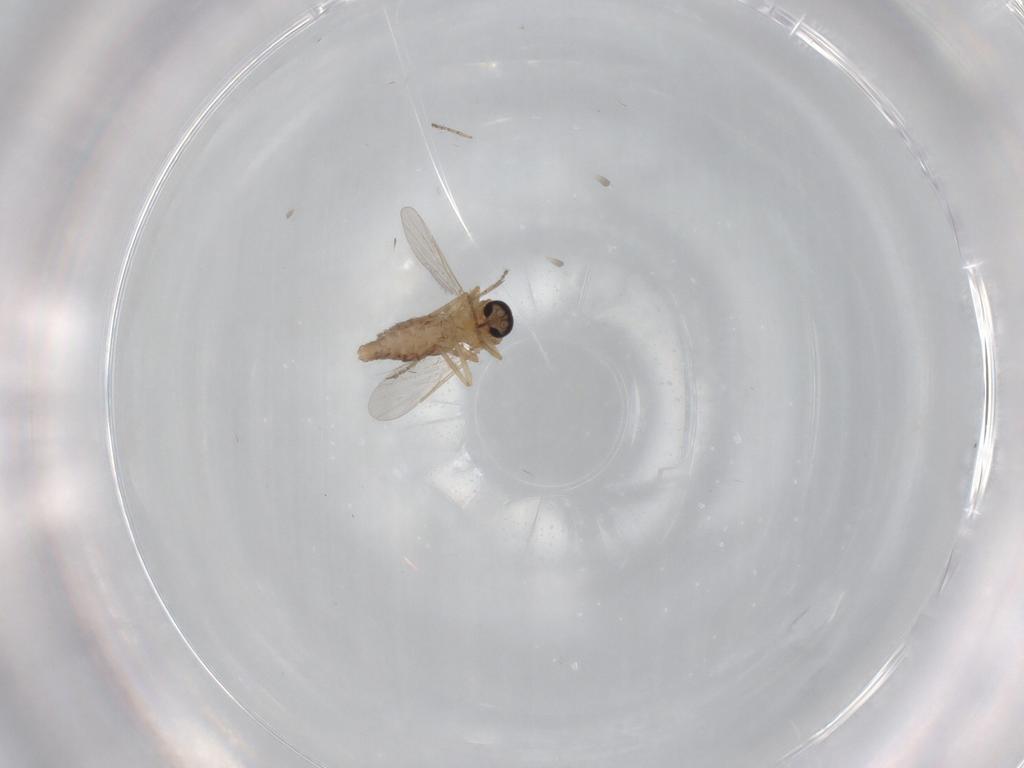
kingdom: Animalia
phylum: Arthropoda
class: Insecta
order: Diptera
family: Ceratopogonidae
